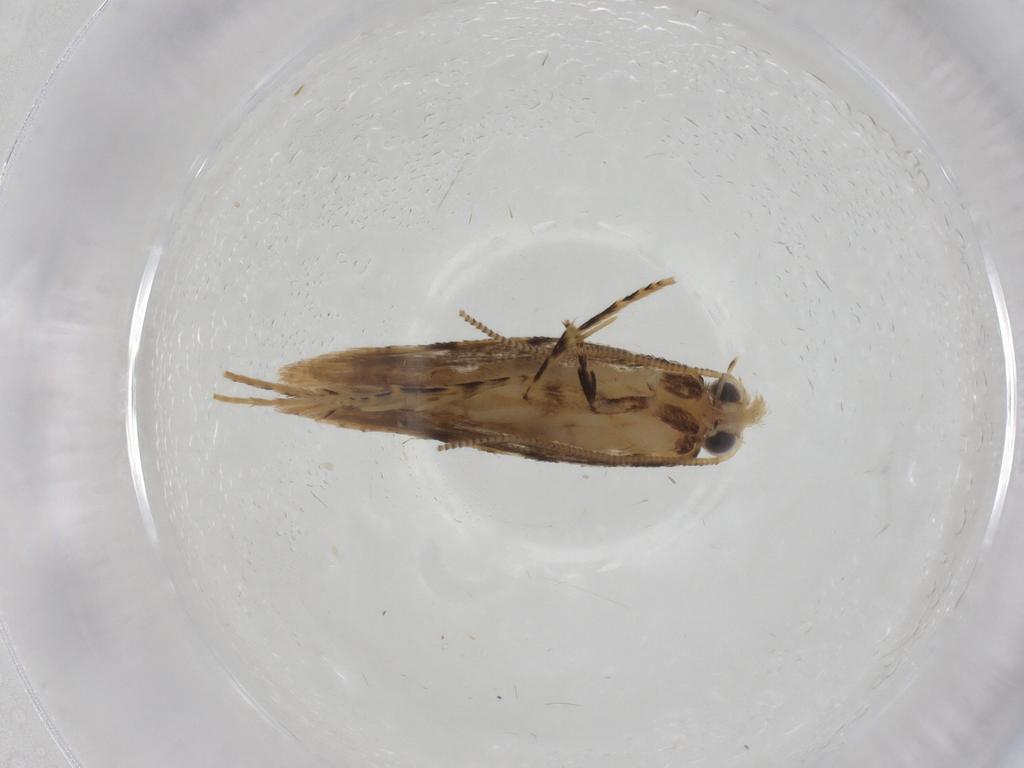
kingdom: Animalia
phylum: Arthropoda
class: Insecta
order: Lepidoptera
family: Meessiidae
